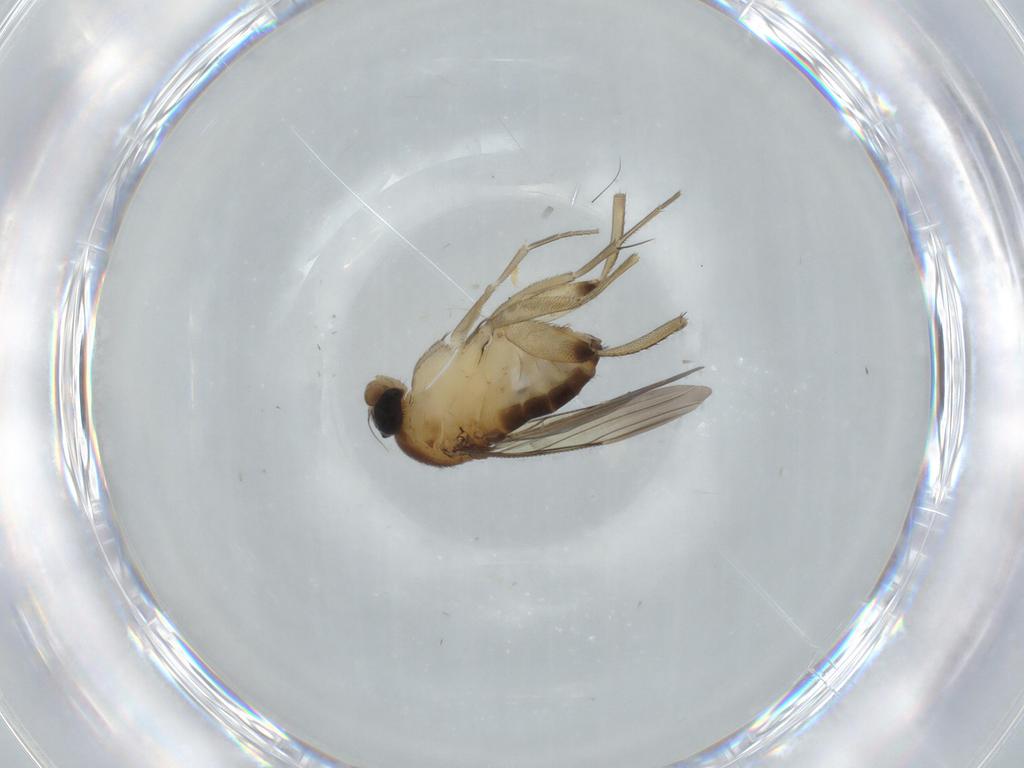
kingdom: Animalia
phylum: Arthropoda
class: Insecta
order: Diptera
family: Phoridae
